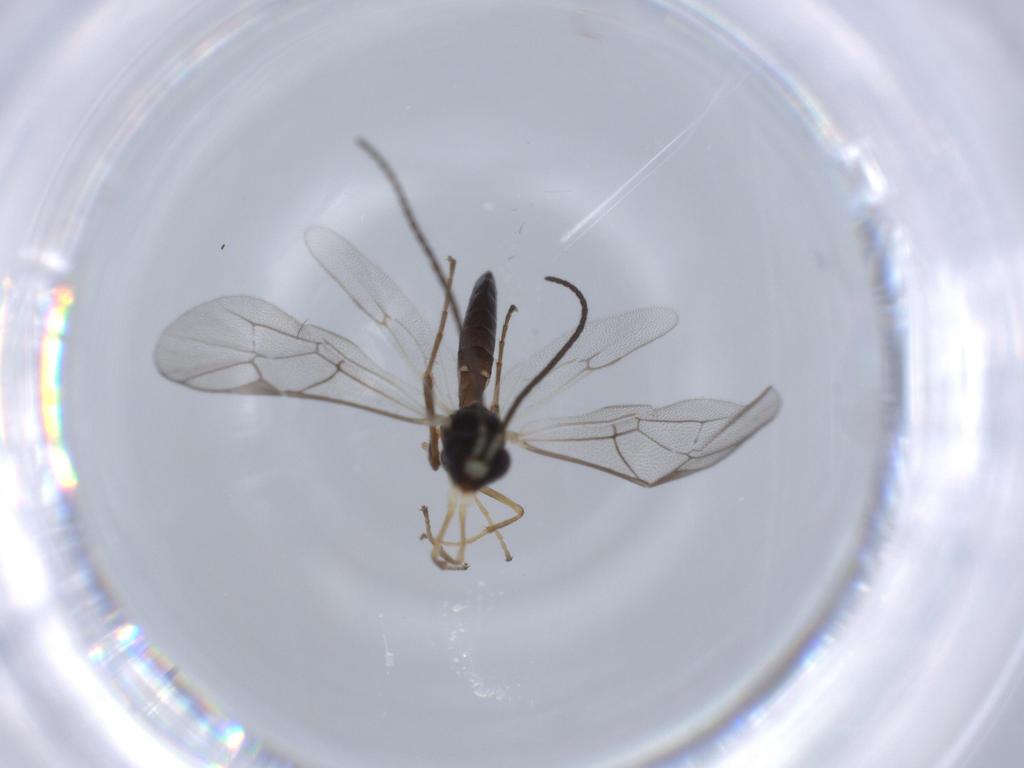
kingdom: Animalia
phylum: Arthropoda
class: Insecta
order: Hymenoptera
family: Ichneumonidae
